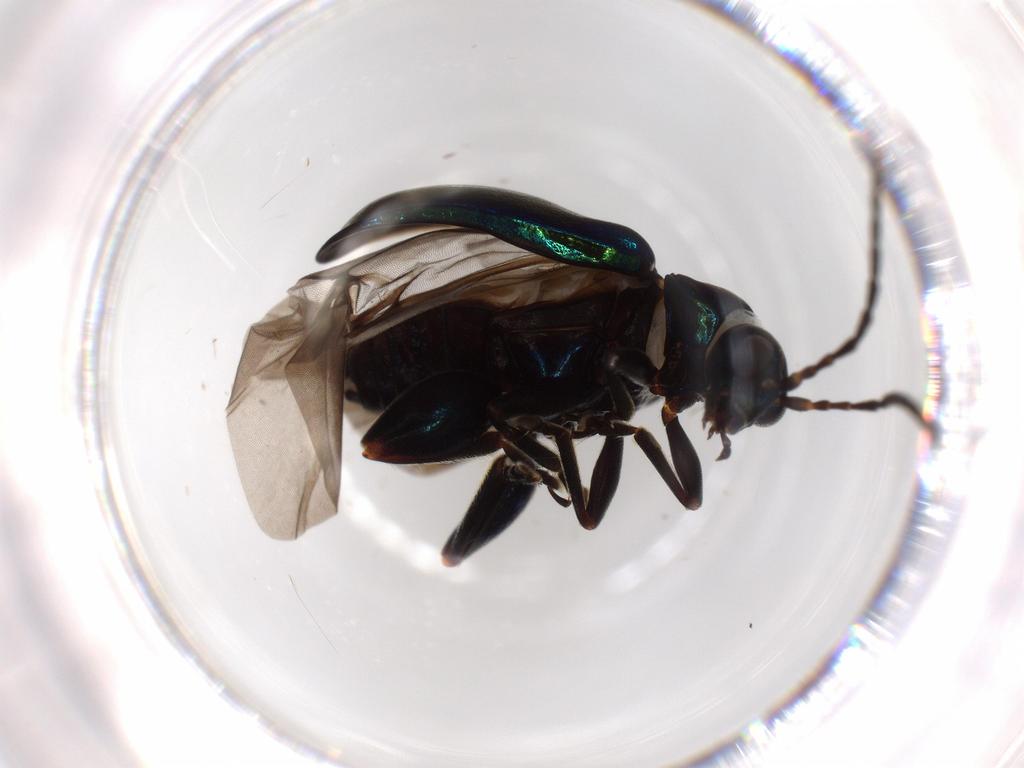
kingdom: Animalia
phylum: Arthropoda
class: Insecta
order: Coleoptera
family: Chrysomelidae
